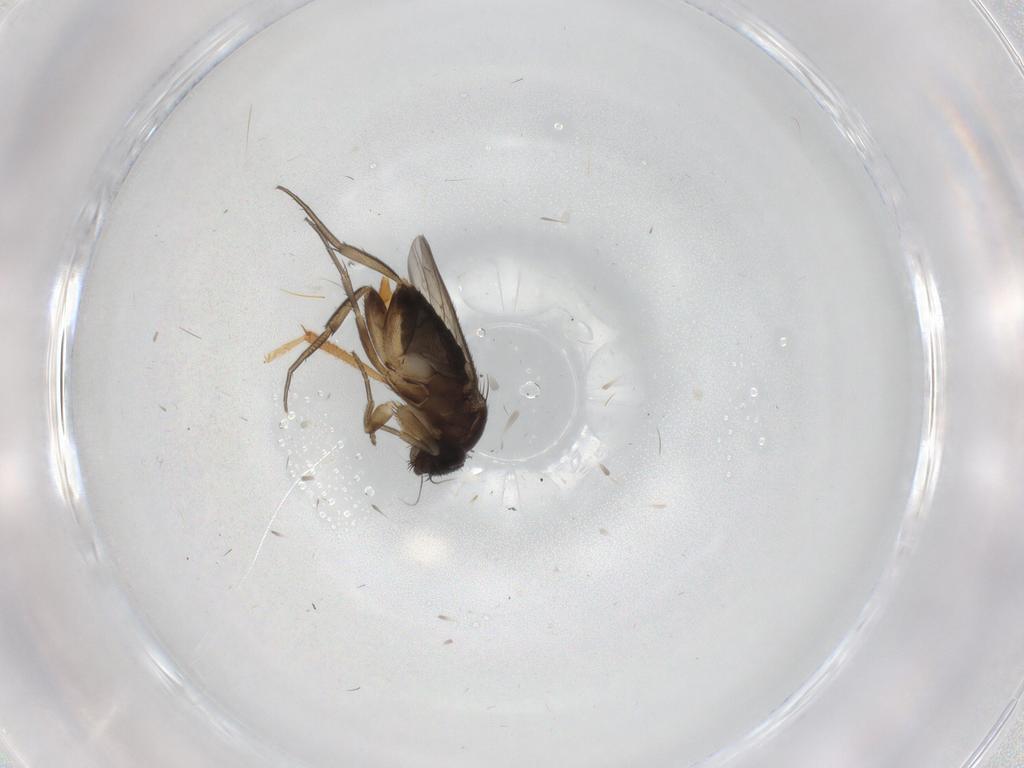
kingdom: Animalia
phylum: Arthropoda
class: Insecta
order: Diptera
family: Phoridae
